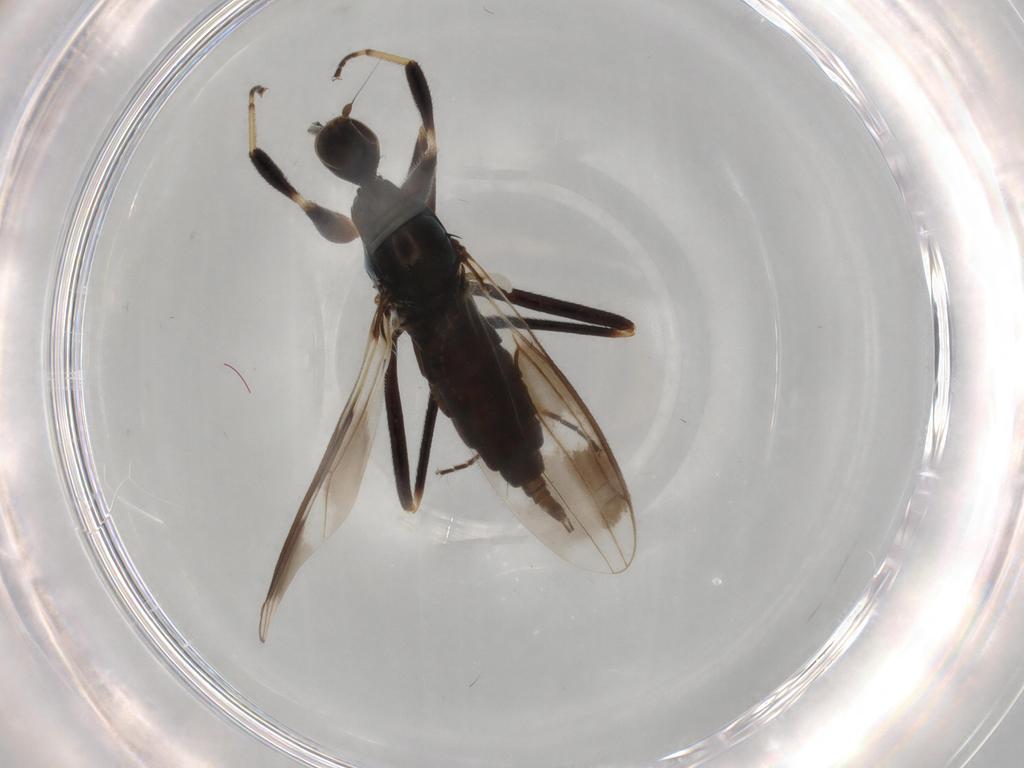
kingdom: Animalia
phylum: Arthropoda
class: Insecta
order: Diptera
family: Hybotidae
